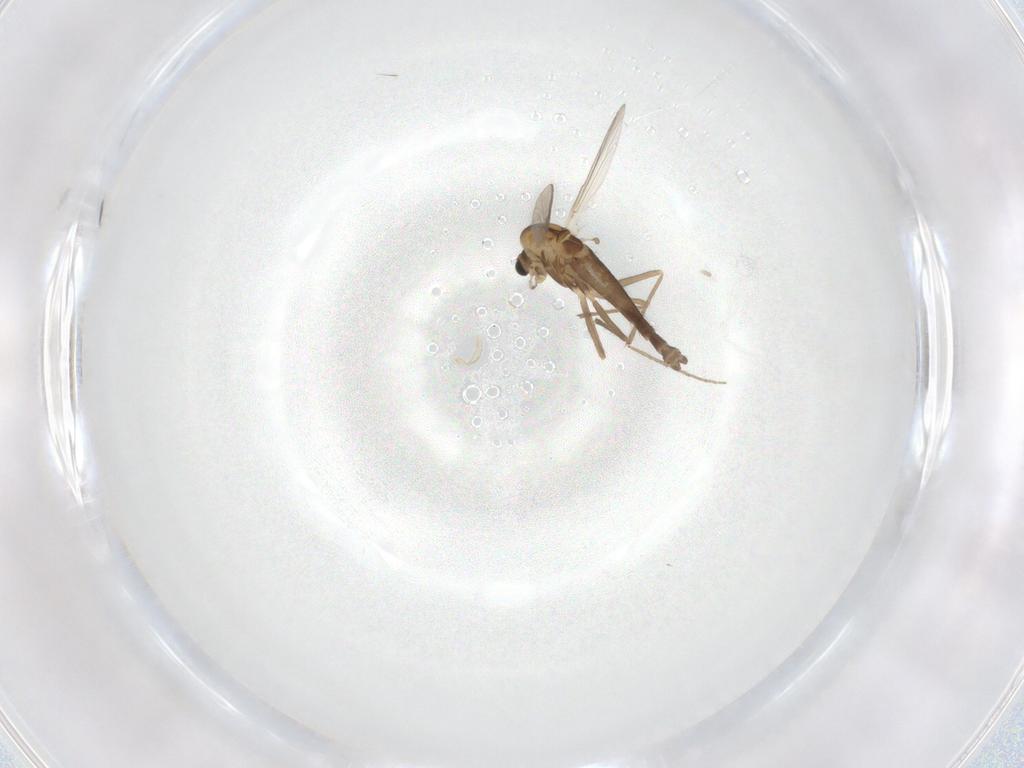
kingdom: Animalia
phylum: Arthropoda
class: Insecta
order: Diptera
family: Chironomidae
